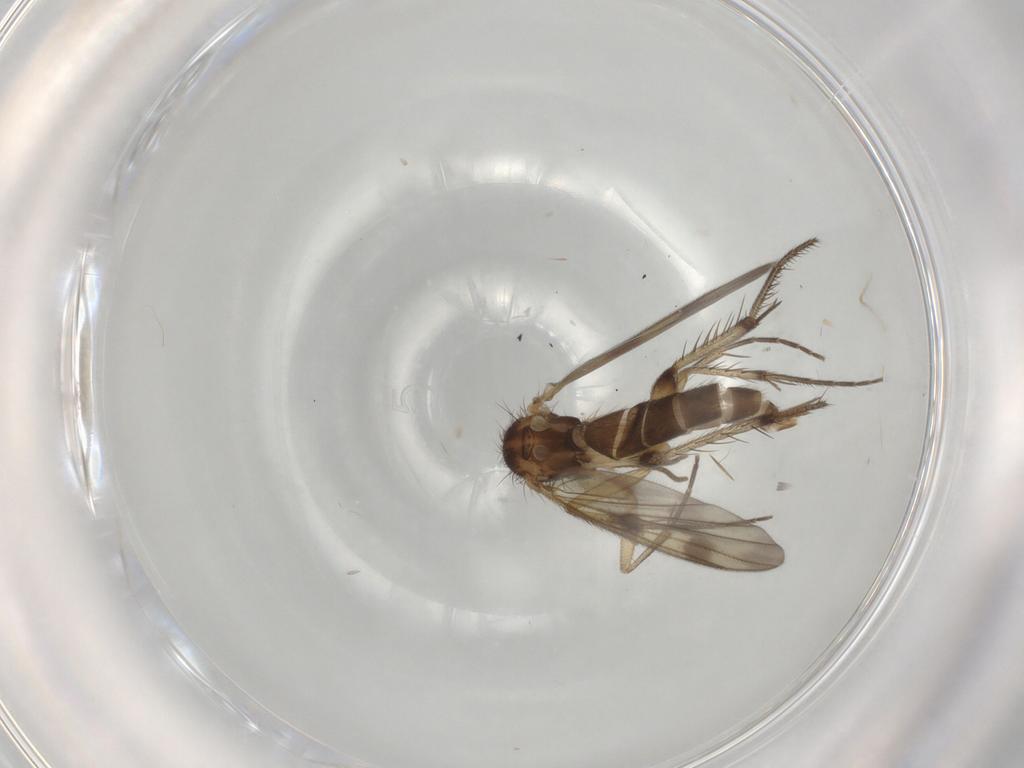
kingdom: Animalia
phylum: Arthropoda
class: Insecta
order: Diptera
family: Mycetophilidae
